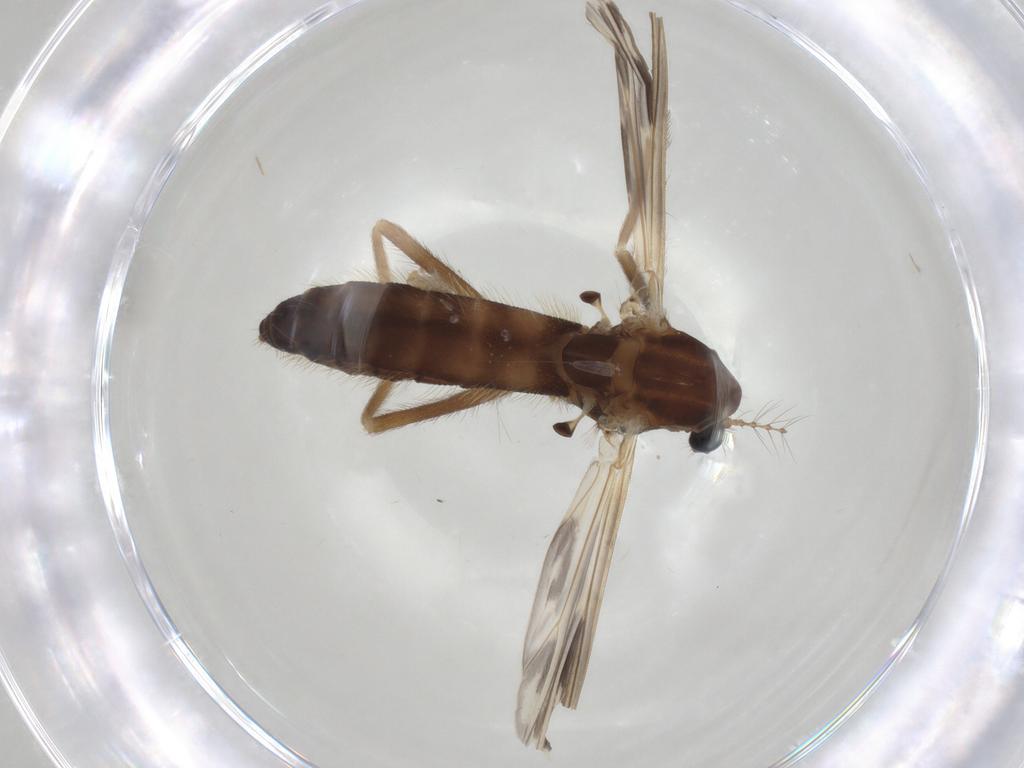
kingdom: Animalia
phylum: Arthropoda
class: Insecta
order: Diptera
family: Chironomidae
